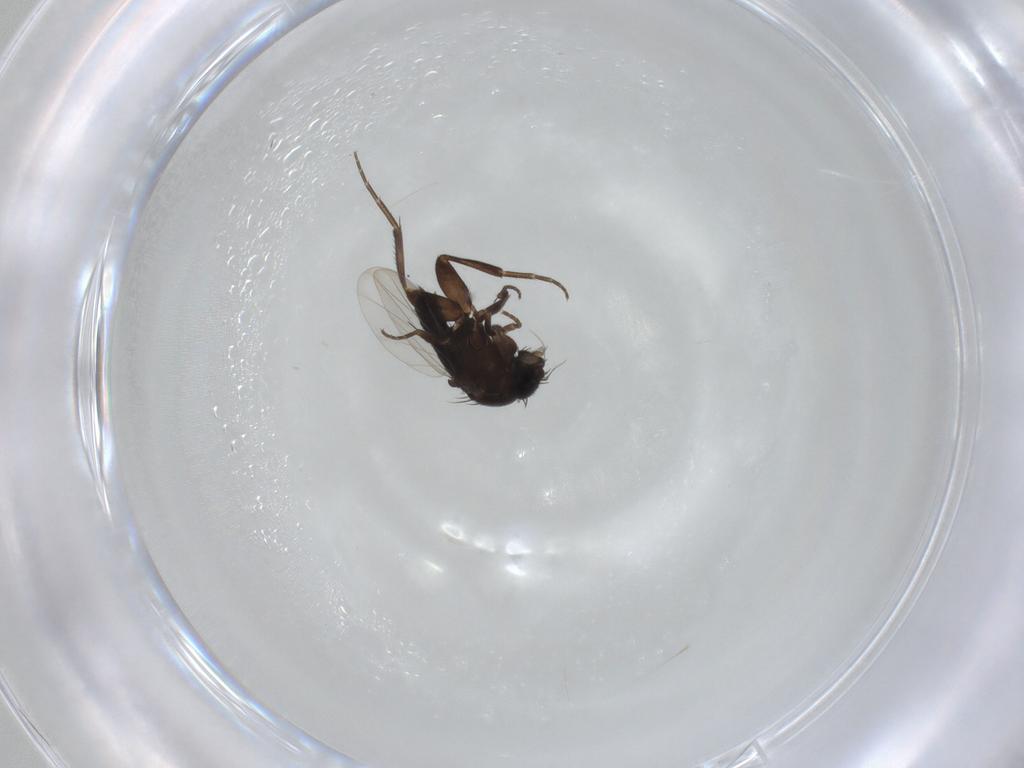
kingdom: Animalia
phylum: Arthropoda
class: Insecta
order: Diptera
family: Phoridae
